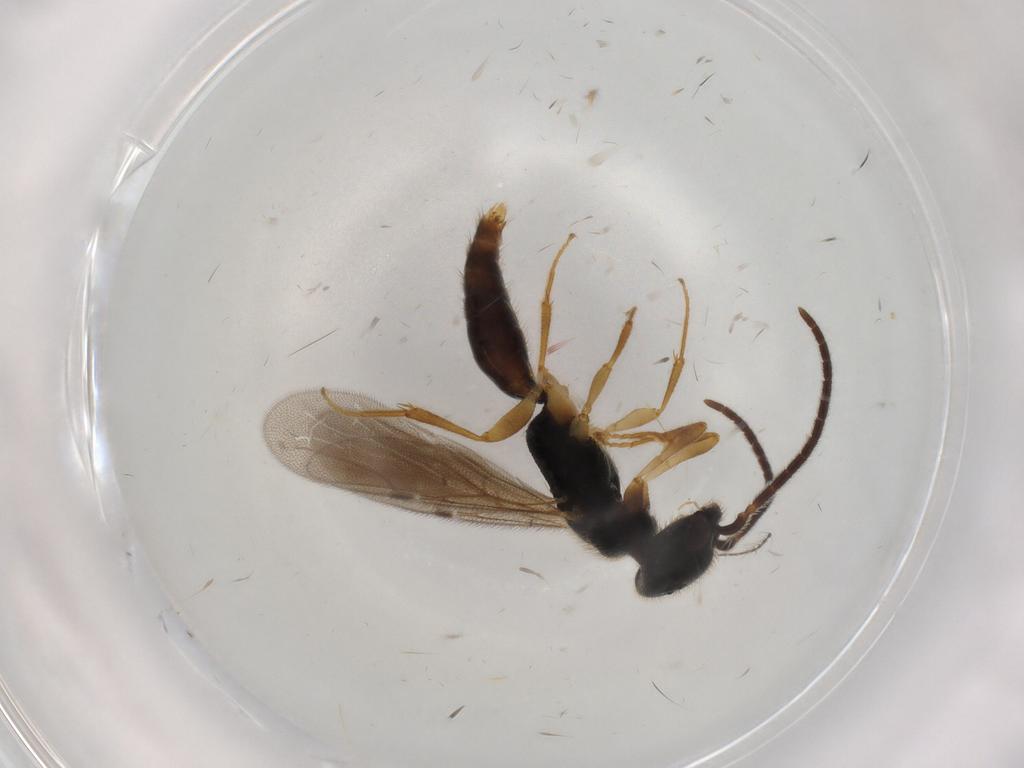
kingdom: Animalia
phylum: Arthropoda
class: Insecta
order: Hymenoptera
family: Bethylidae
